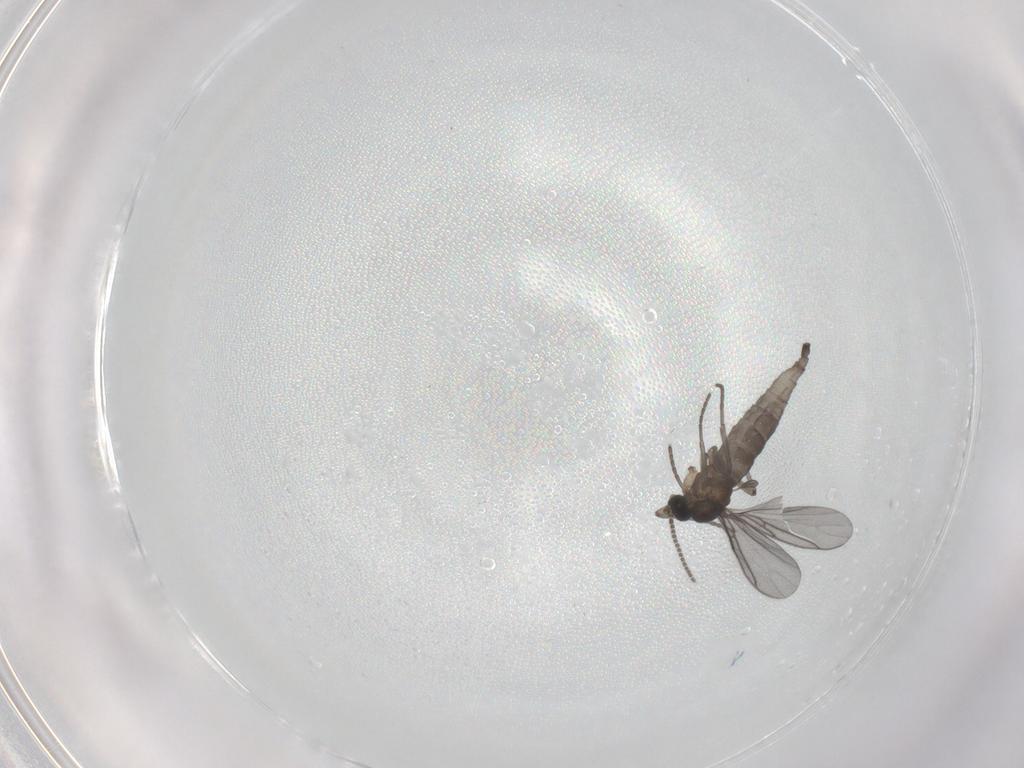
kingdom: Animalia
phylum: Arthropoda
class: Insecta
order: Diptera
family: Sciaridae
